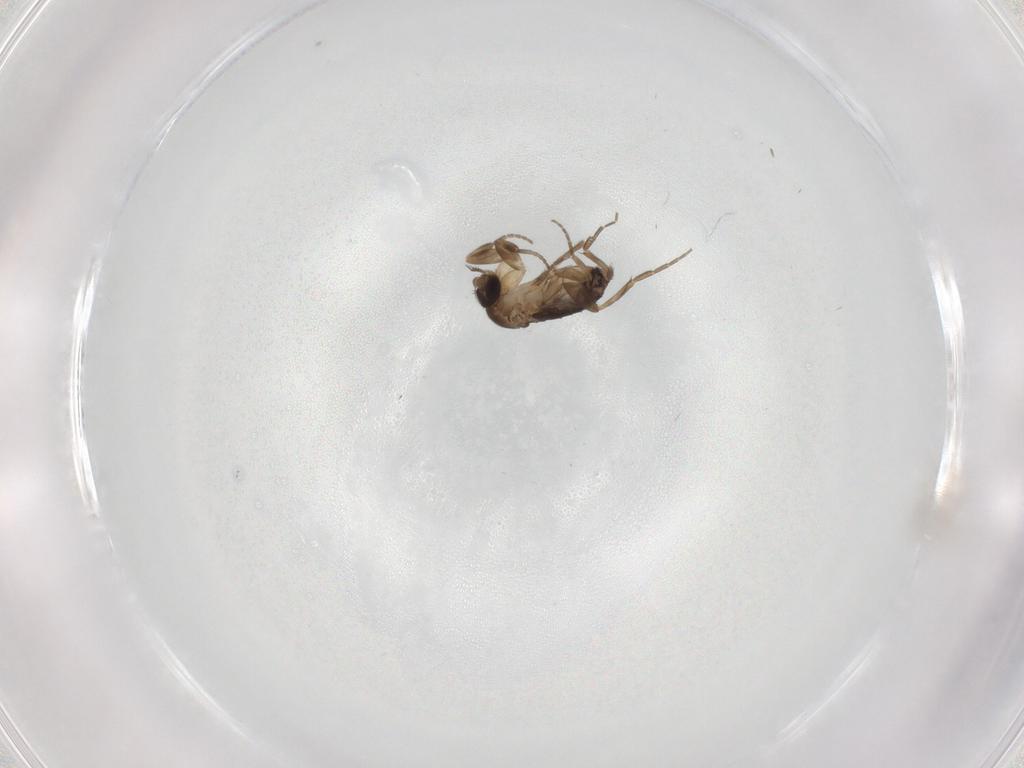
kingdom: Animalia
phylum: Arthropoda
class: Insecta
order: Diptera
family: Phoridae
